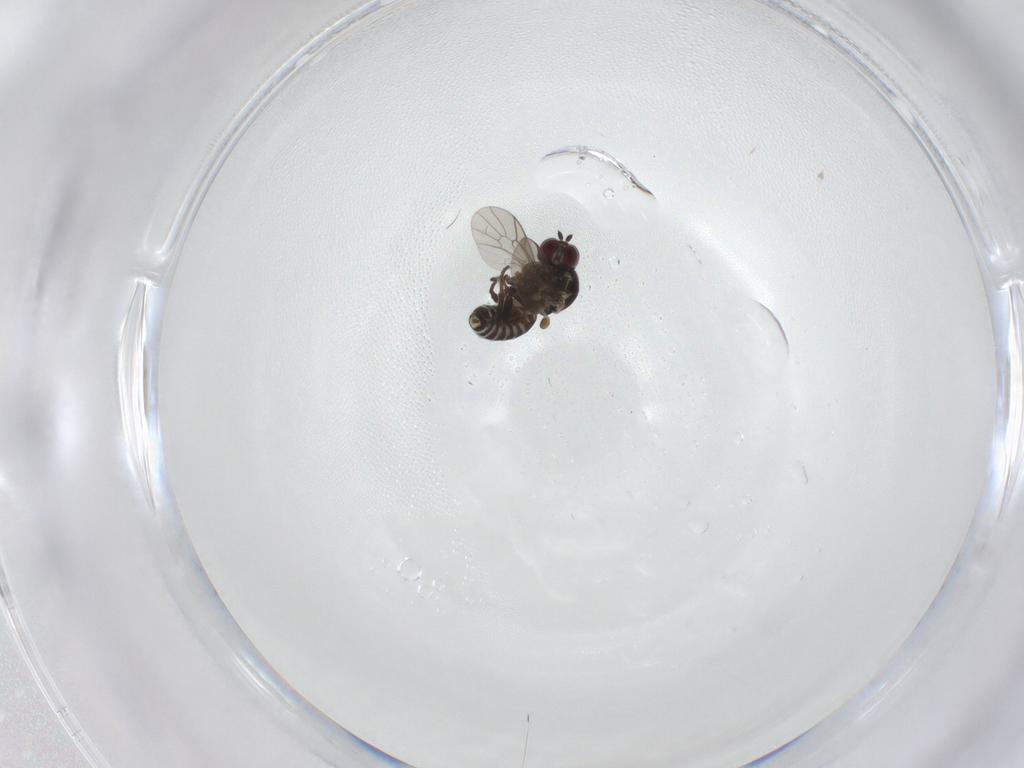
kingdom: Animalia
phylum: Arthropoda
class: Insecta
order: Diptera
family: Mythicomyiidae
